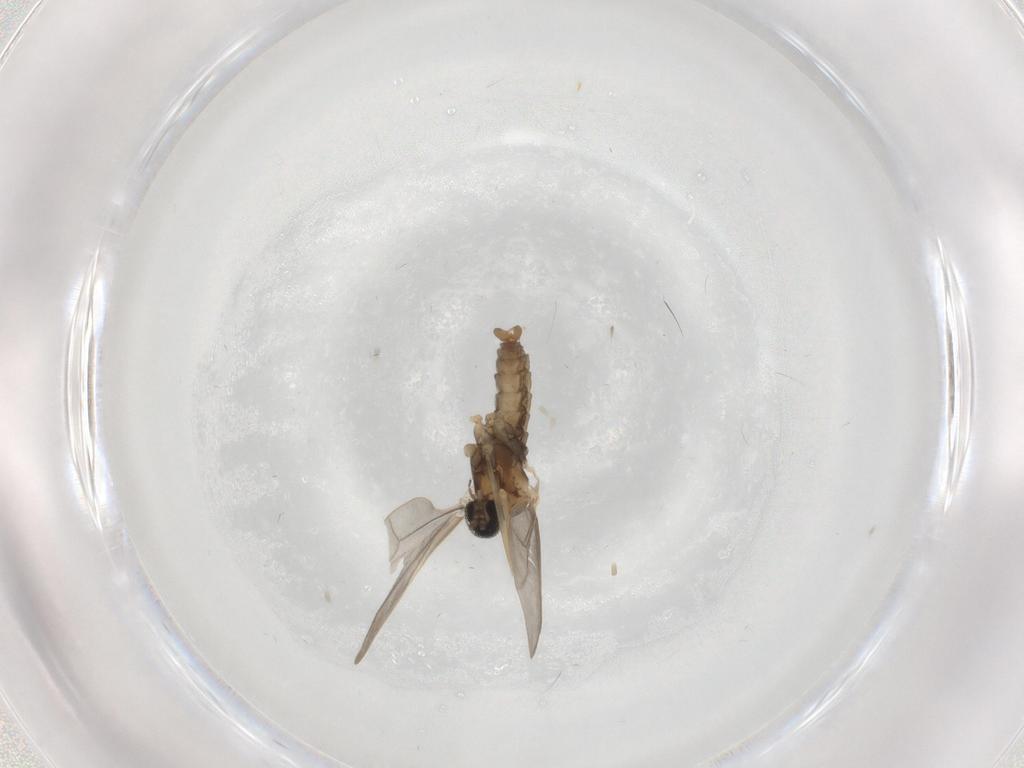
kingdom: Animalia
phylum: Arthropoda
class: Insecta
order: Diptera
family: Cecidomyiidae
